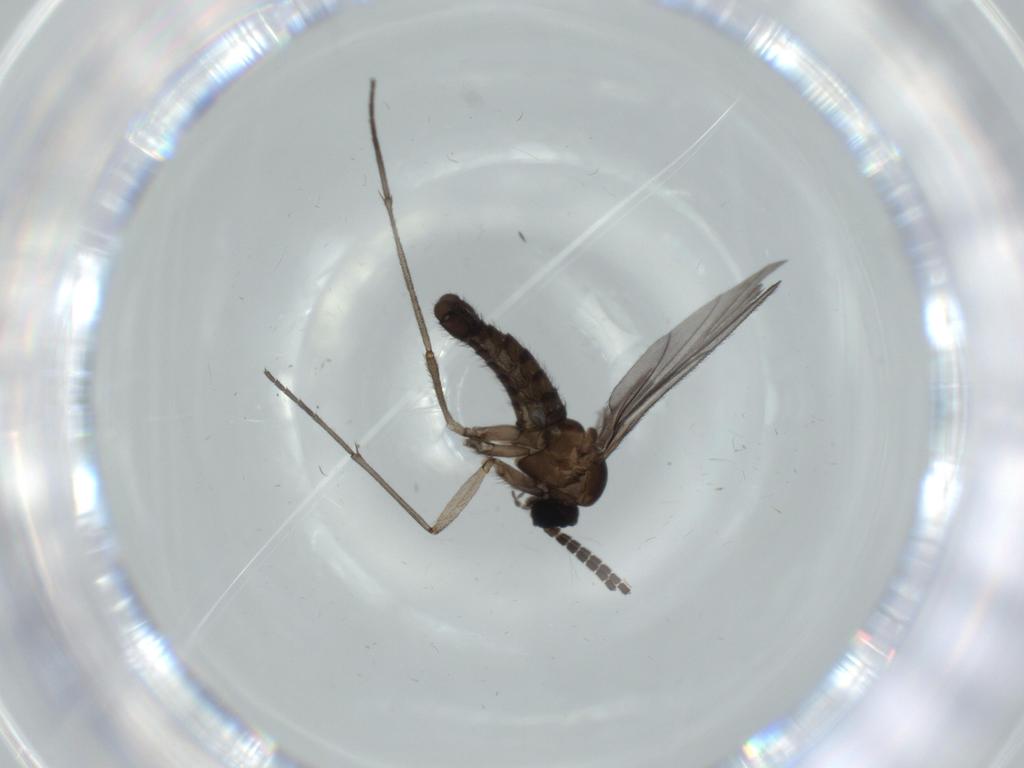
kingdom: Animalia
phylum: Arthropoda
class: Insecta
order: Diptera
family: Sciaridae
